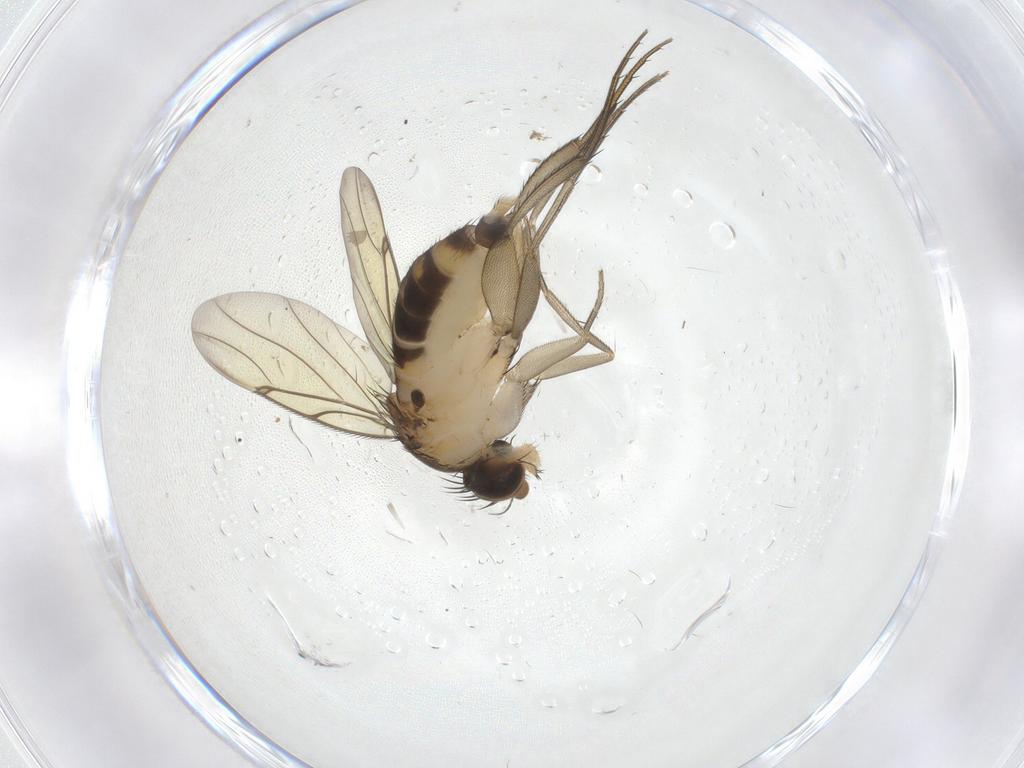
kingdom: Animalia
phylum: Arthropoda
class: Insecta
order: Diptera
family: Phoridae
